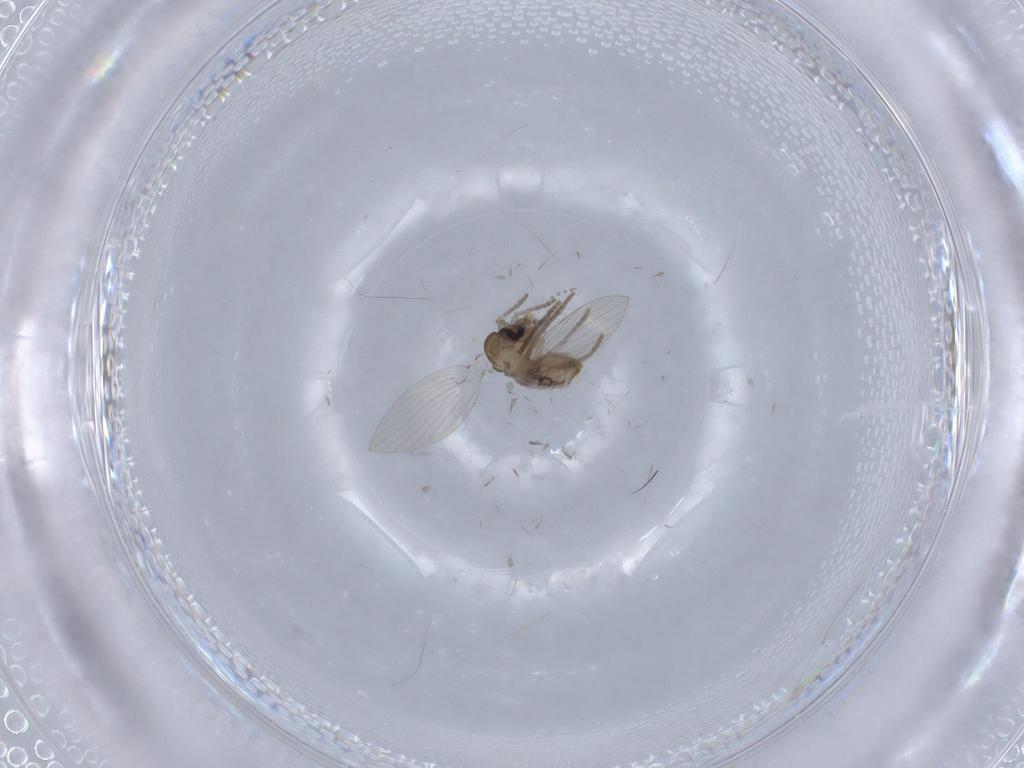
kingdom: Animalia
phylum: Arthropoda
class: Insecta
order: Diptera
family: Psychodidae
